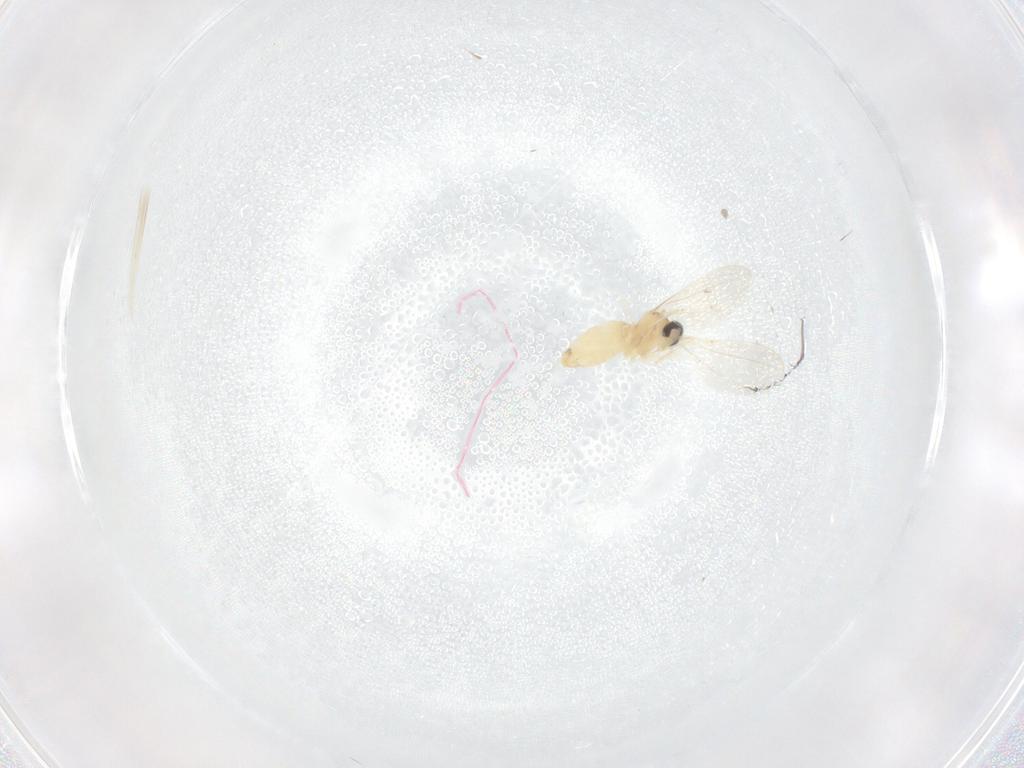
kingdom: Animalia
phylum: Arthropoda
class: Insecta
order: Diptera
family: Cecidomyiidae
